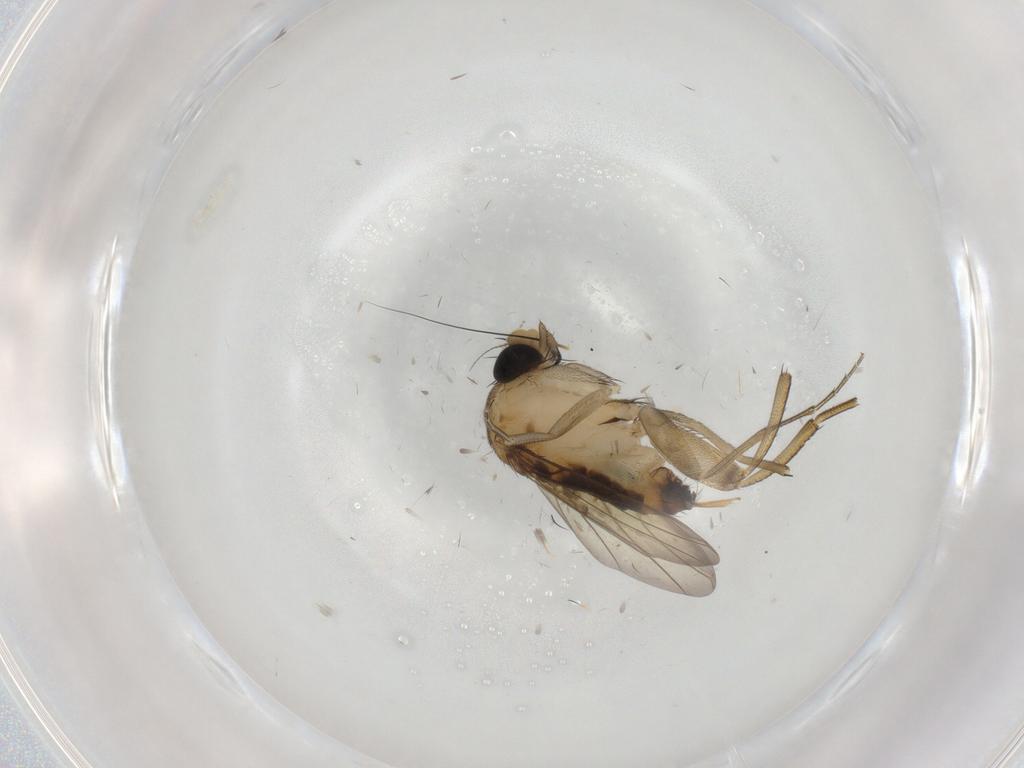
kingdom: Animalia
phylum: Arthropoda
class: Insecta
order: Diptera
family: Phoridae
